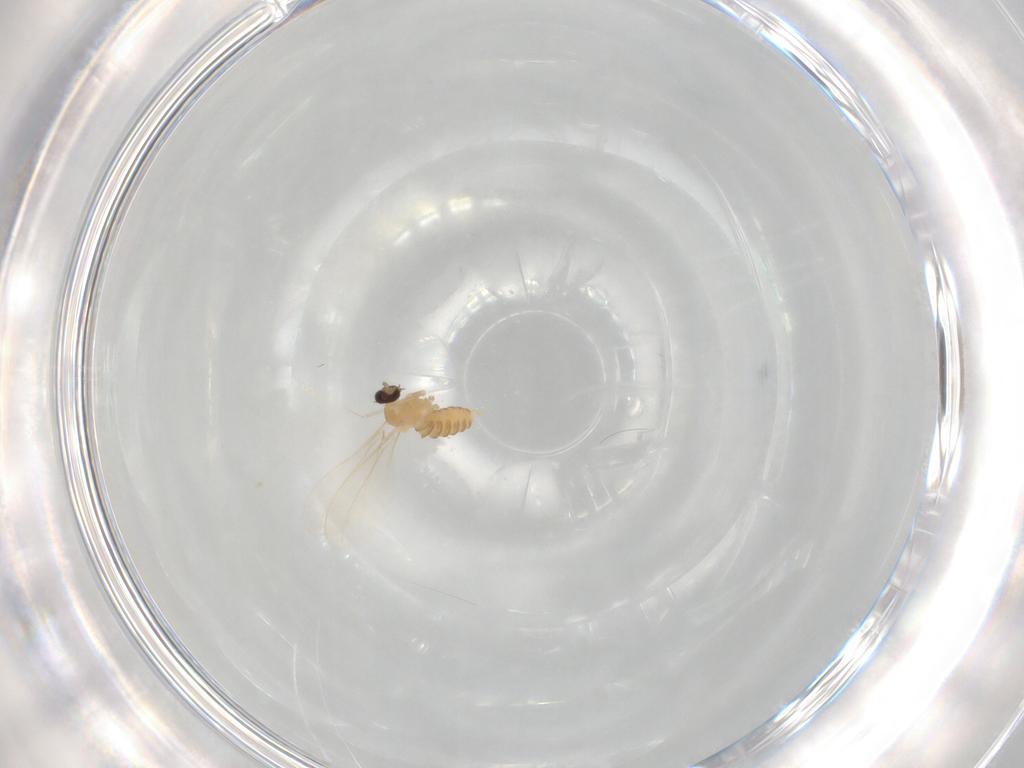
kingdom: Animalia
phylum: Arthropoda
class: Insecta
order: Diptera
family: Cecidomyiidae
